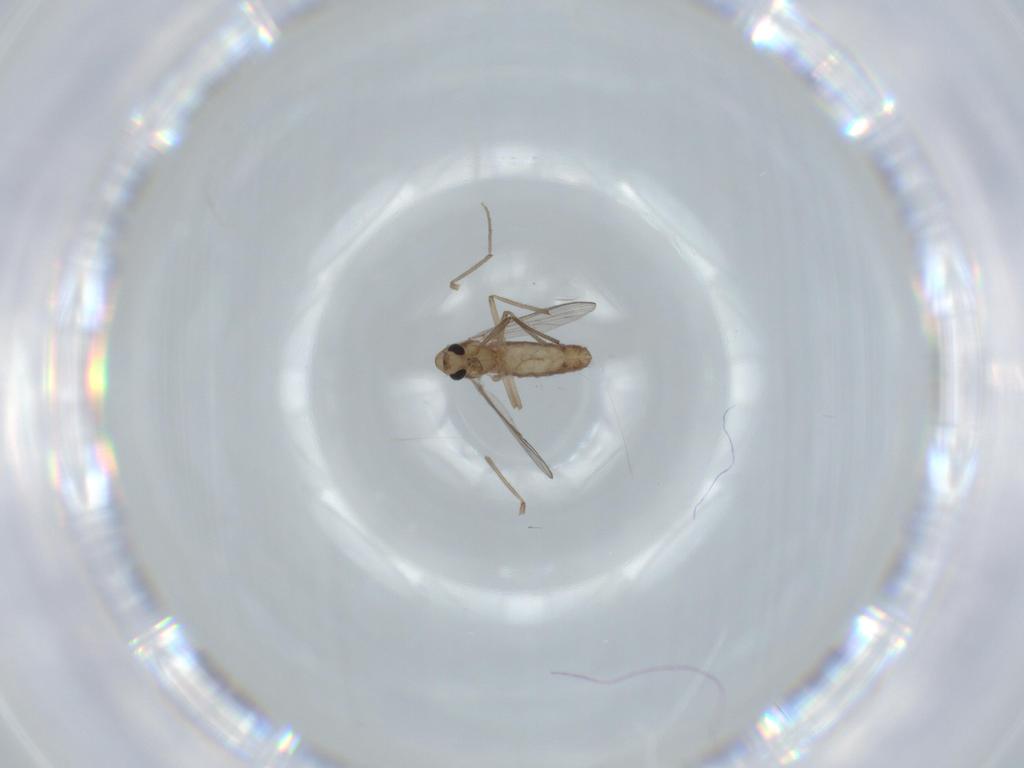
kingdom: Animalia
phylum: Arthropoda
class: Insecta
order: Diptera
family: Chironomidae
